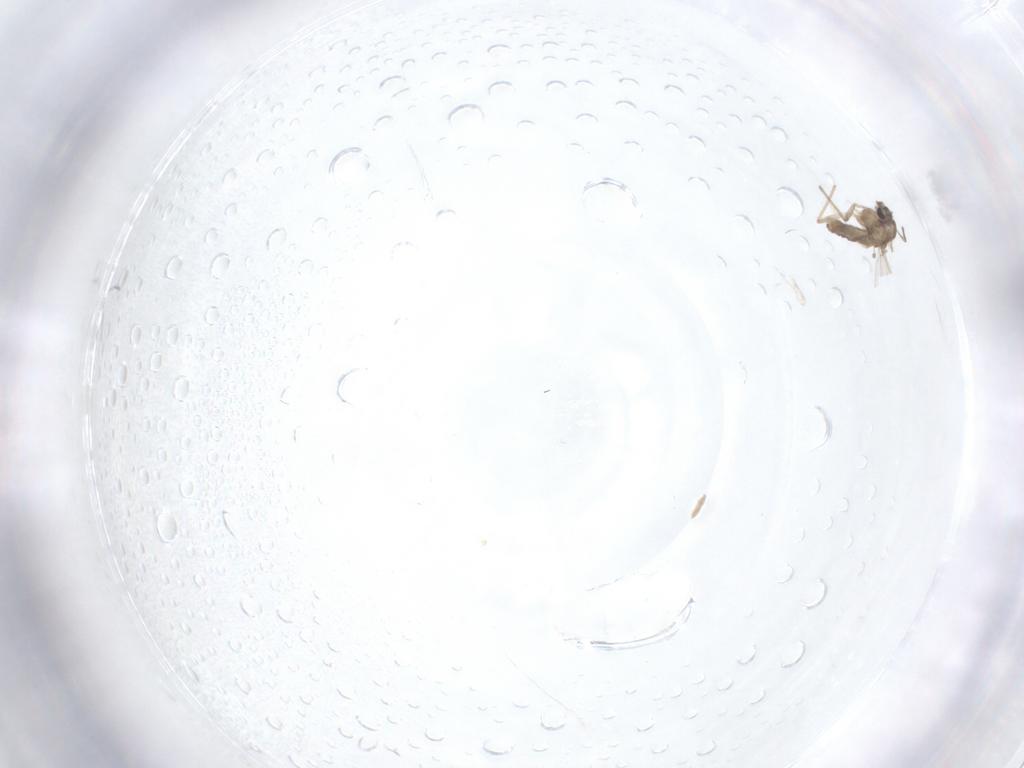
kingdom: Animalia
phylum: Arthropoda
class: Insecta
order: Diptera
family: Chironomidae
